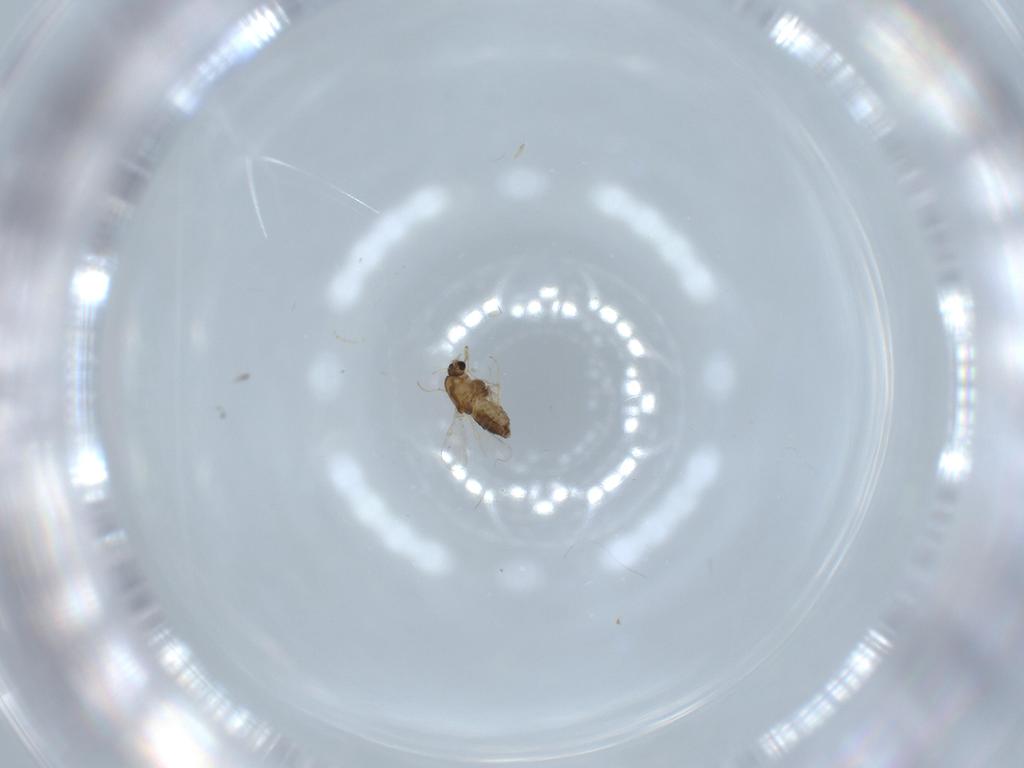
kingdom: Animalia
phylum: Arthropoda
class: Insecta
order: Diptera
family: Chironomidae
